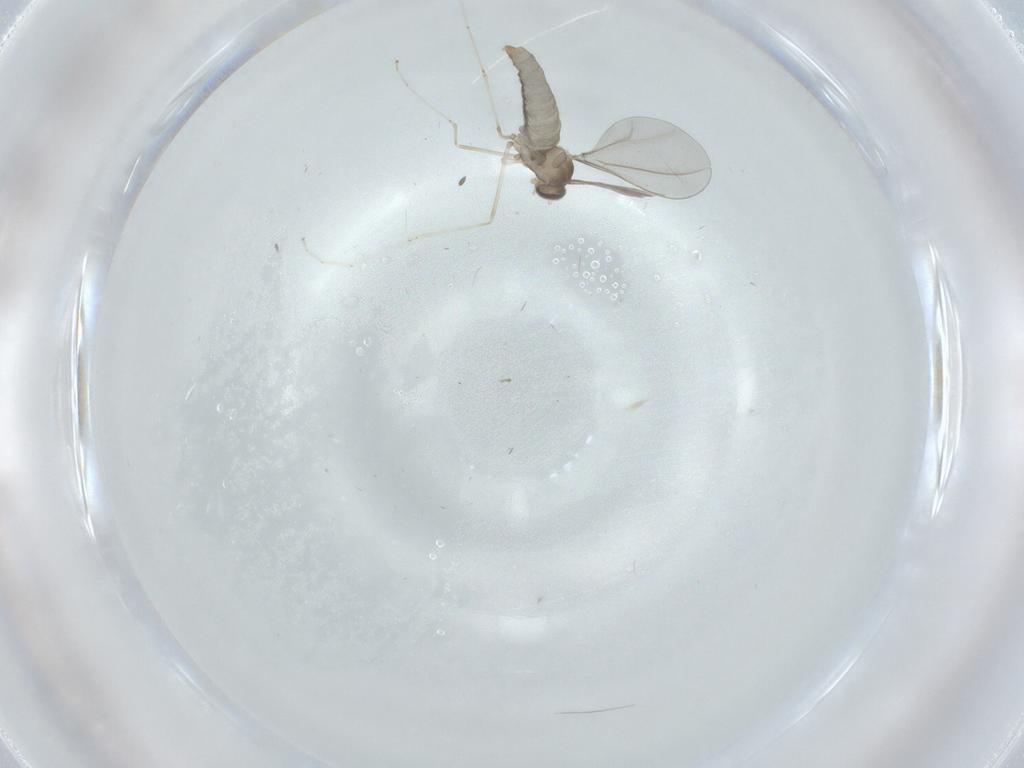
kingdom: Animalia
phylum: Arthropoda
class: Insecta
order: Diptera
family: Cecidomyiidae
